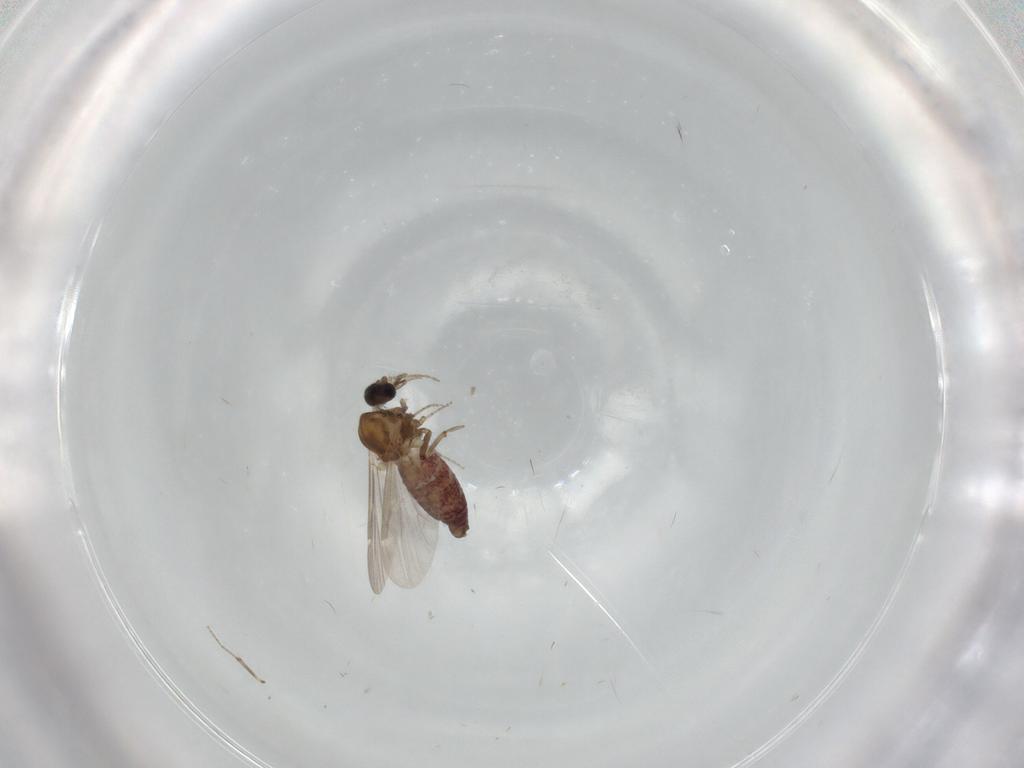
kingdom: Animalia
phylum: Arthropoda
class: Insecta
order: Diptera
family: Ceratopogonidae
